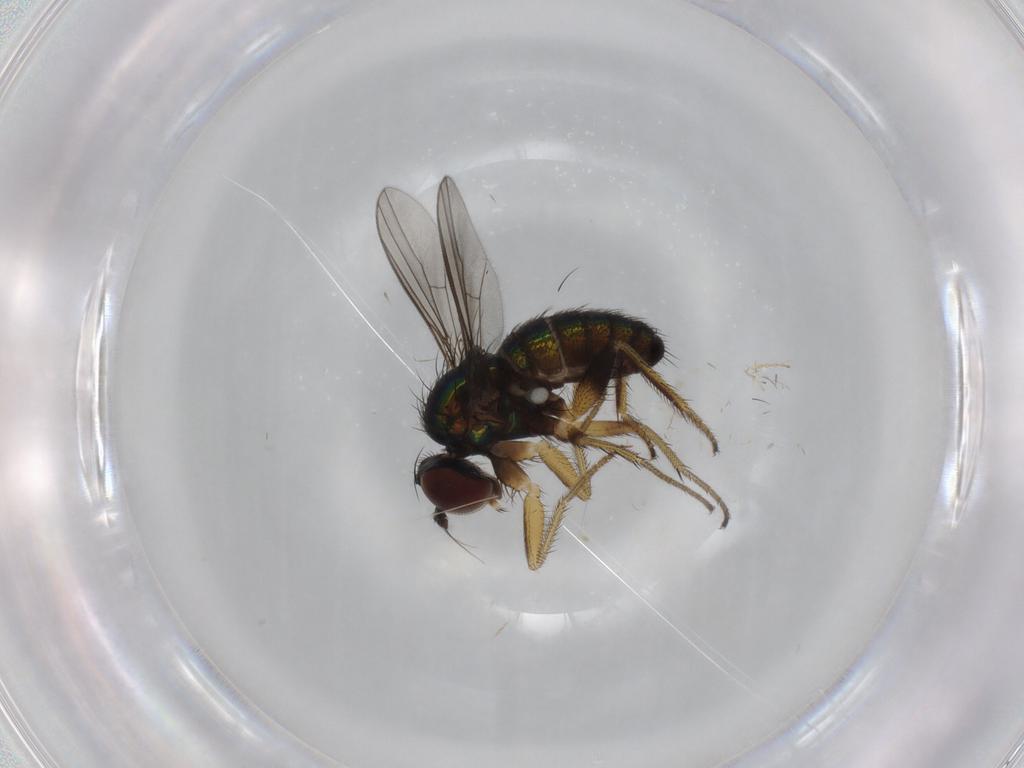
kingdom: Animalia
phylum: Arthropoda
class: Insecta
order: Diptera
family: Dolichopodidae
